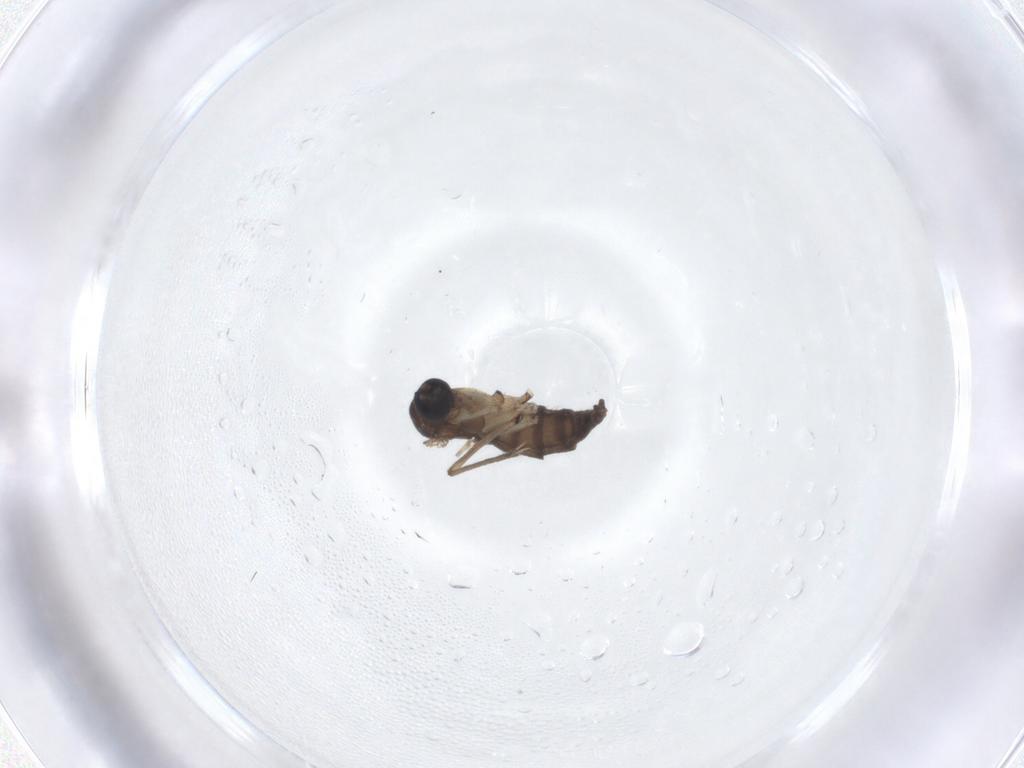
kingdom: Animalia
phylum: Arthropoda
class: Insecta
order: Diptera
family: Sciaridae
